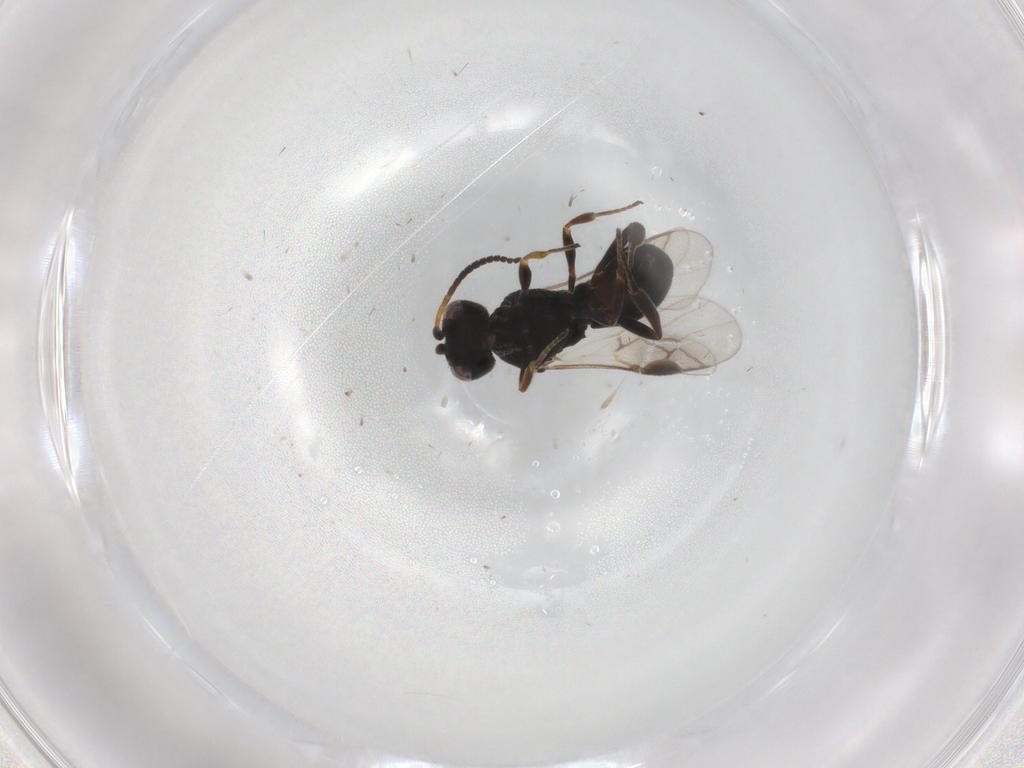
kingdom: Animalia
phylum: Arthropoda
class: Insecta
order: Hymenoptera
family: Braconidae
